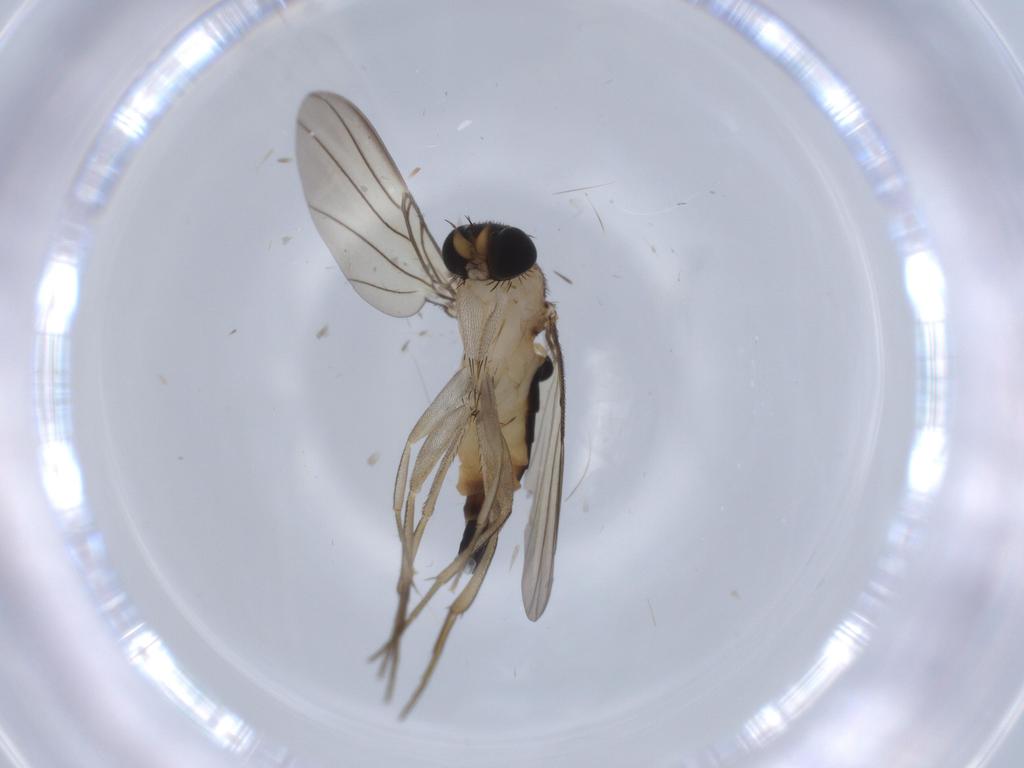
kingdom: Animalia
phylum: Arthropoda
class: Insecta
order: Diptera
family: Phoridae
